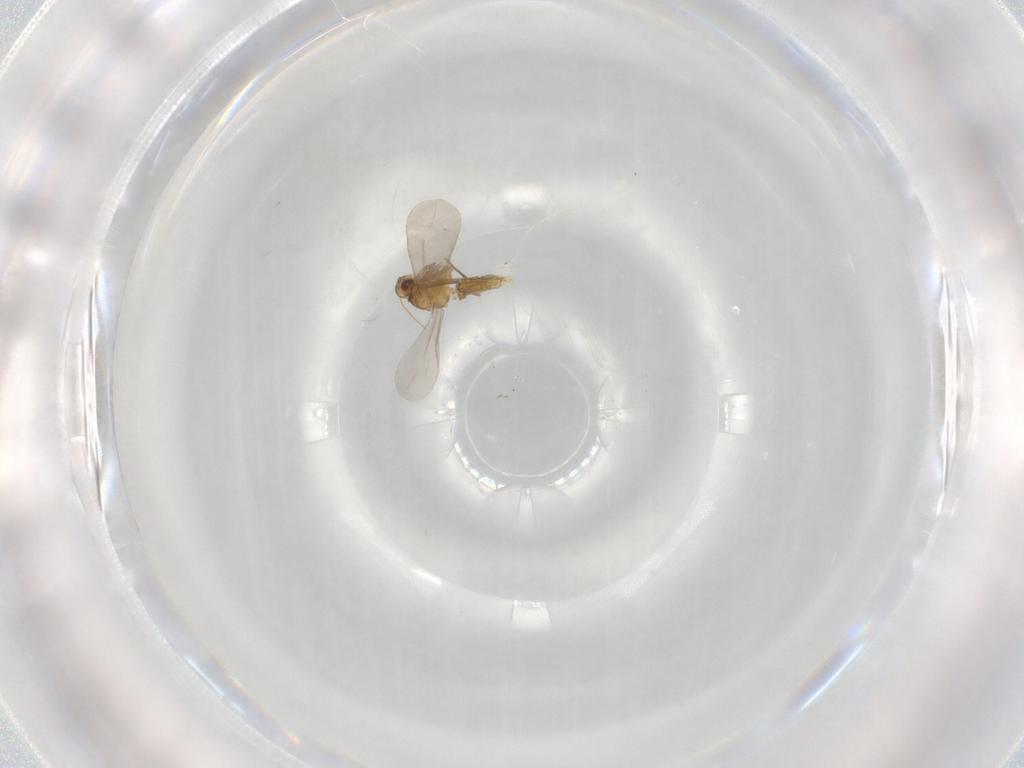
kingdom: Animalia
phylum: Arthropoda
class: Insecta
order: Hemiptera
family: Aleyrodidae
